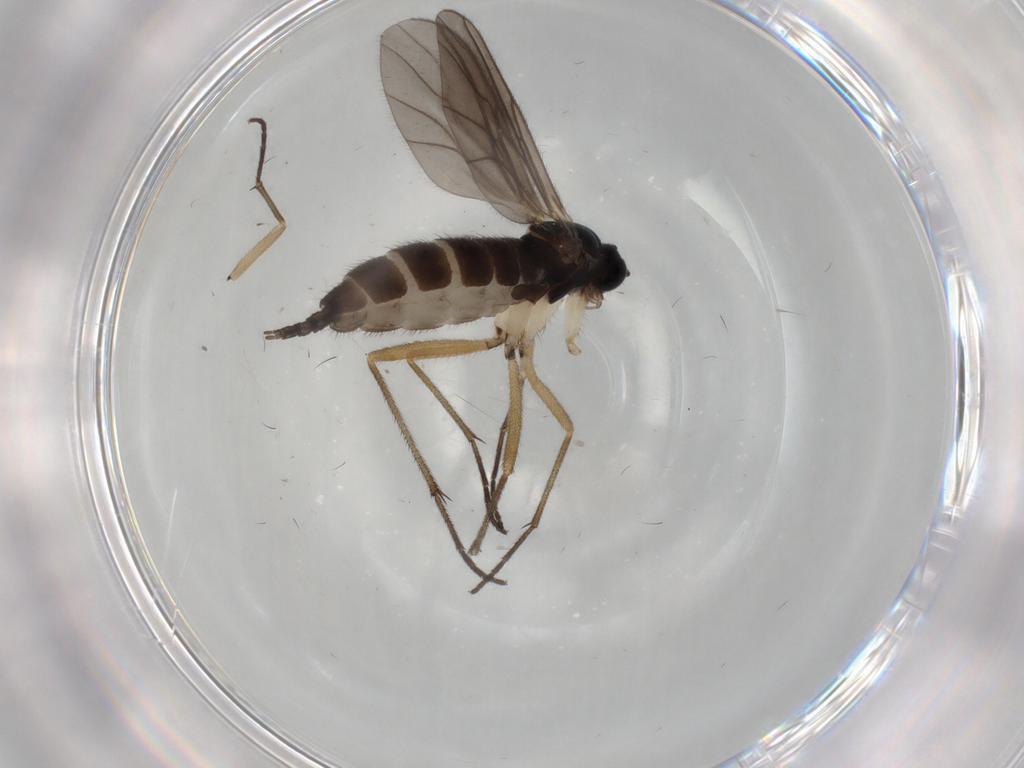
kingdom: Animalia
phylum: Arthropoda
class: Insecta
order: Diptera
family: Sciaridae
